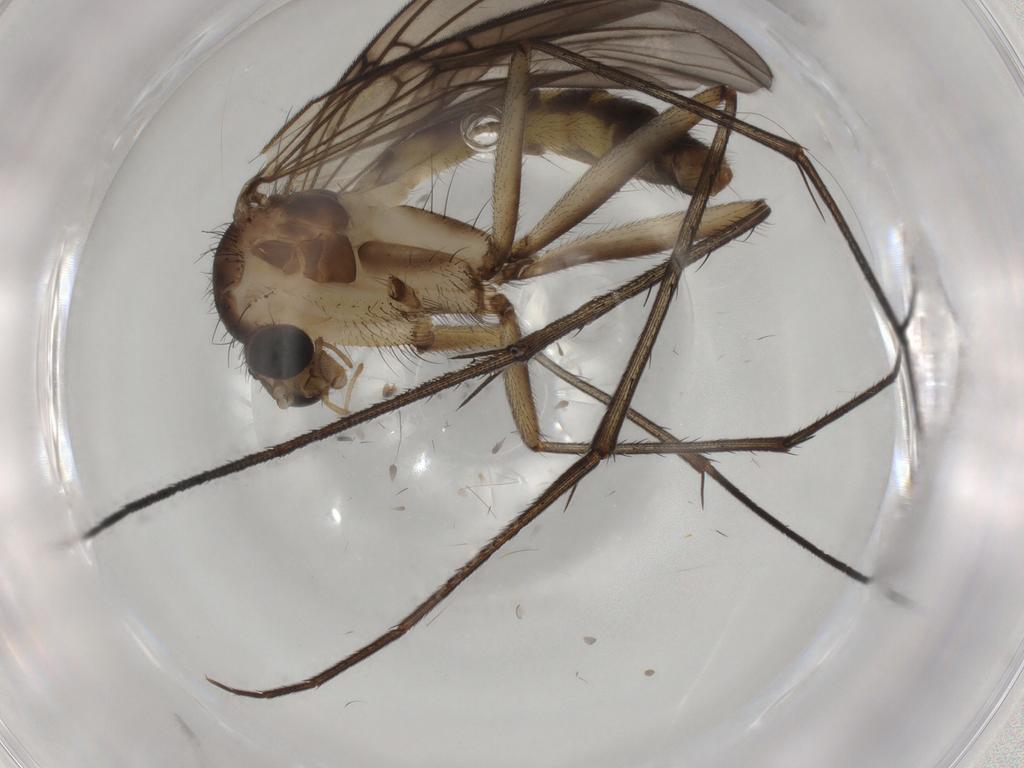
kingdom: Animalia
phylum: Arthropoda
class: Insecta
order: Diptera
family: Mycetophilidae
